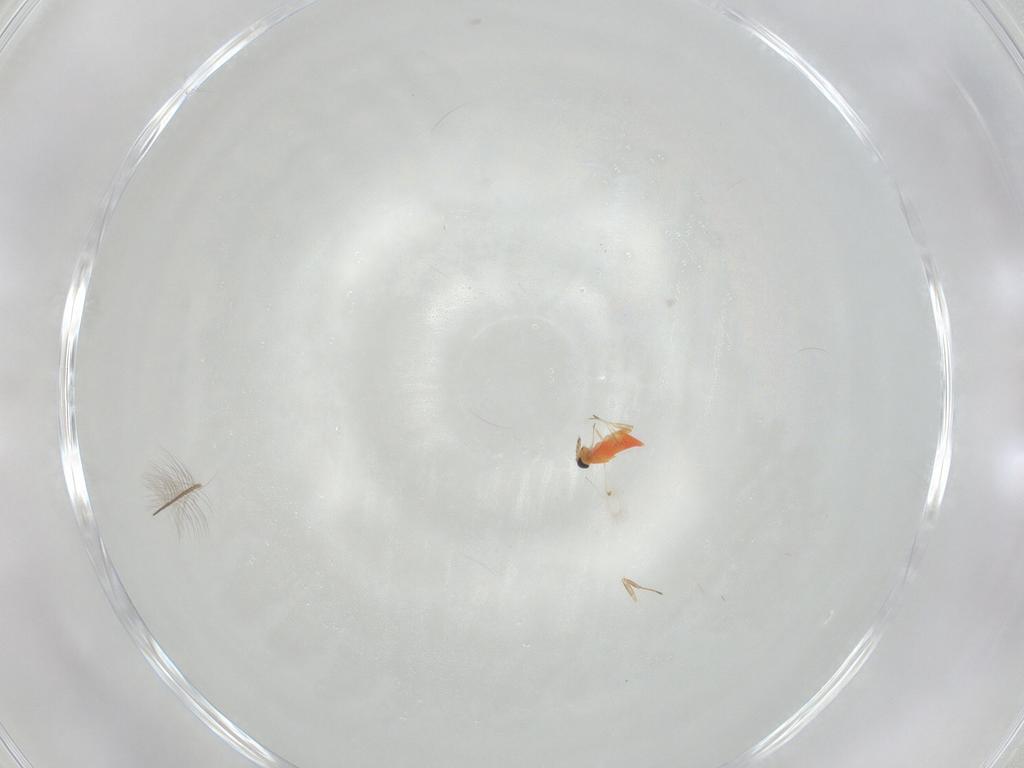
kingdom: Animalia
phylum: Arthropoda
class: Insecta
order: Hymenoptera
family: Trichogrammatidae
